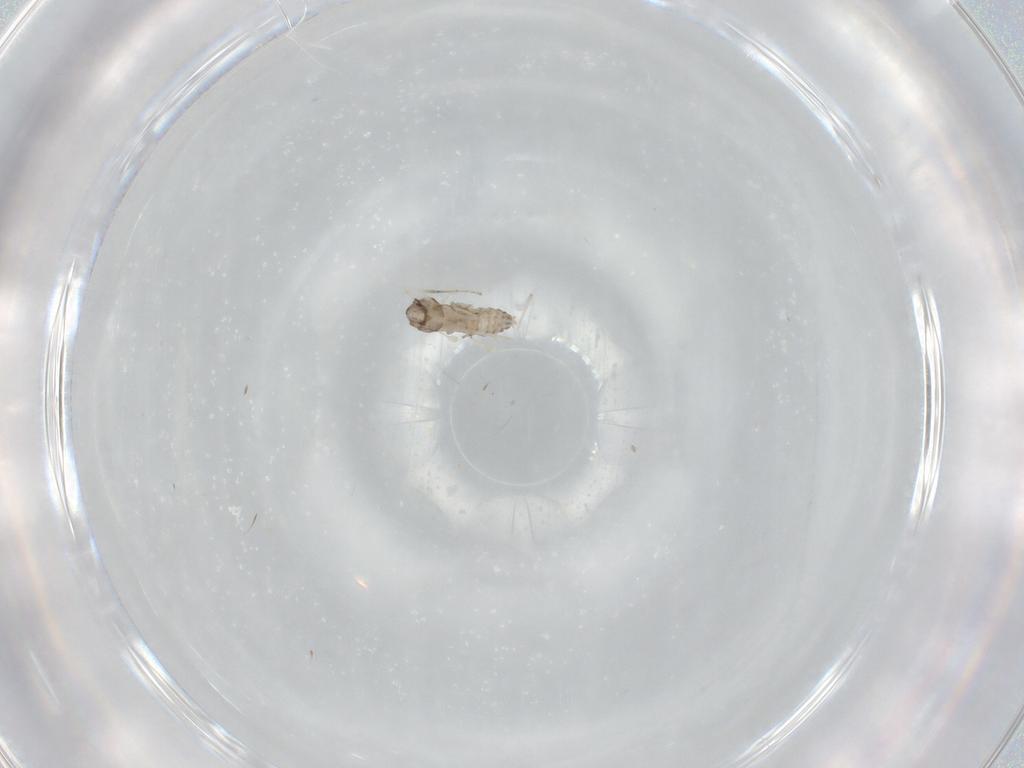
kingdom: Animalia
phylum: Arthropoda
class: Insecta
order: Diptera
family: Cecidomyiidae
